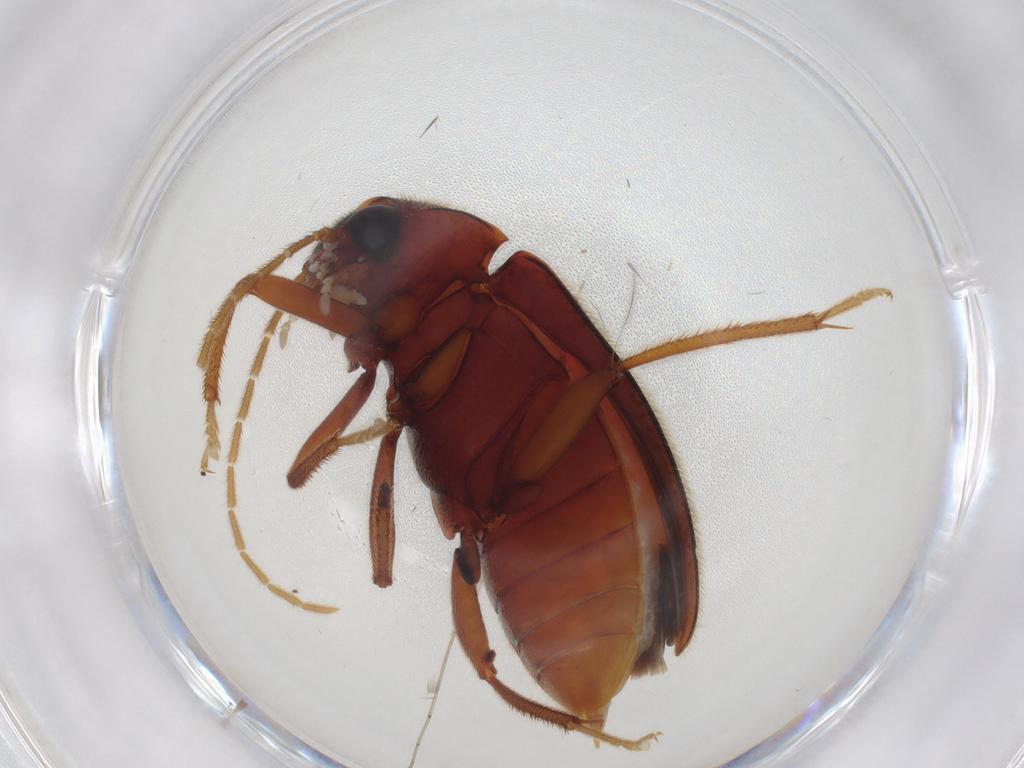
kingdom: Animalia
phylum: Arthropoda
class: Insecta
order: Coleoptera
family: Ptilodactylidae
